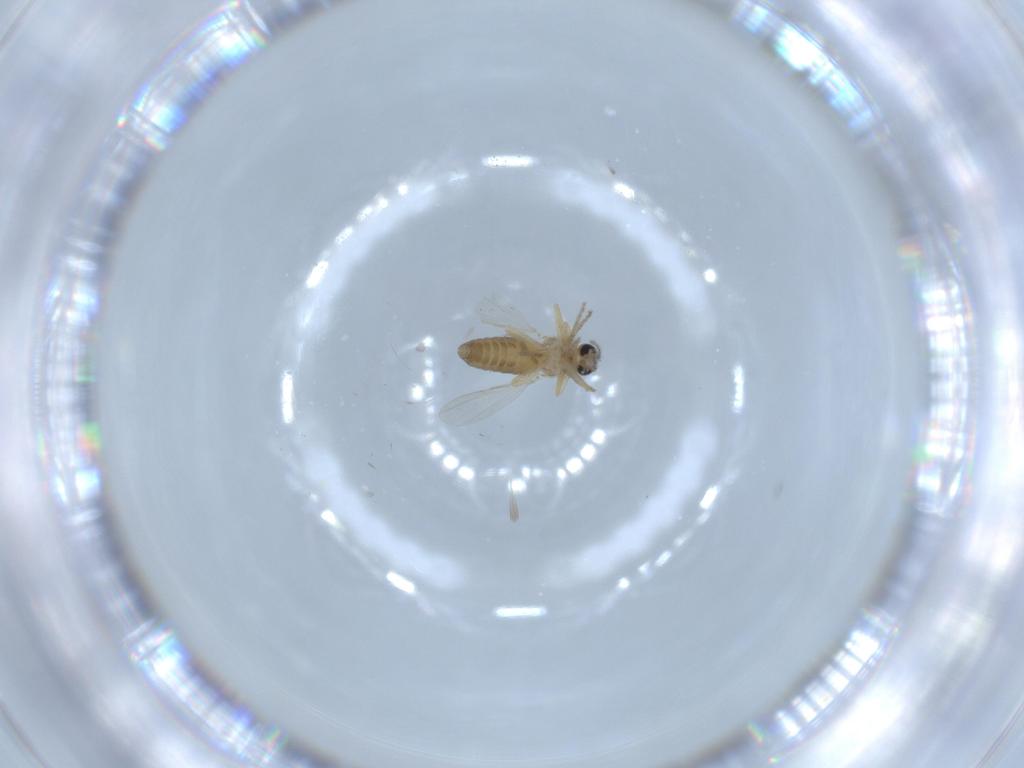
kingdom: Animalia
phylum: Arthropoda
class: Insecta
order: Diptera
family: Ceratopogonidae
